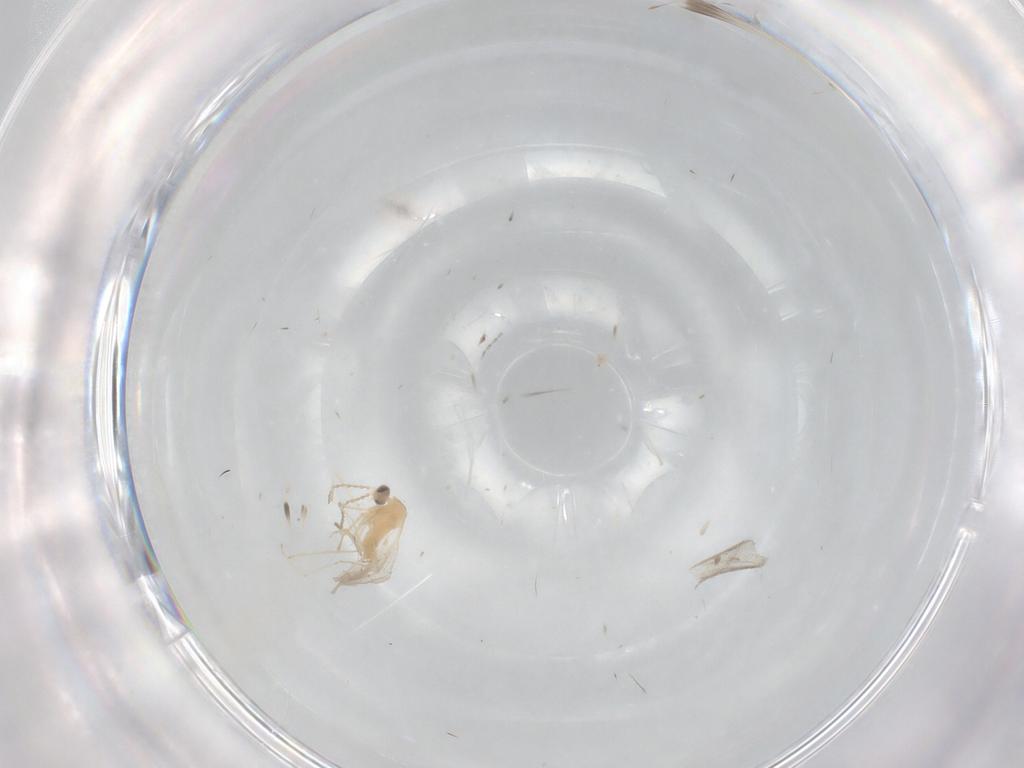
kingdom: Animalia
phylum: Arthropoda
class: Insecta
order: Diptera
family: Cecidomyiidae
